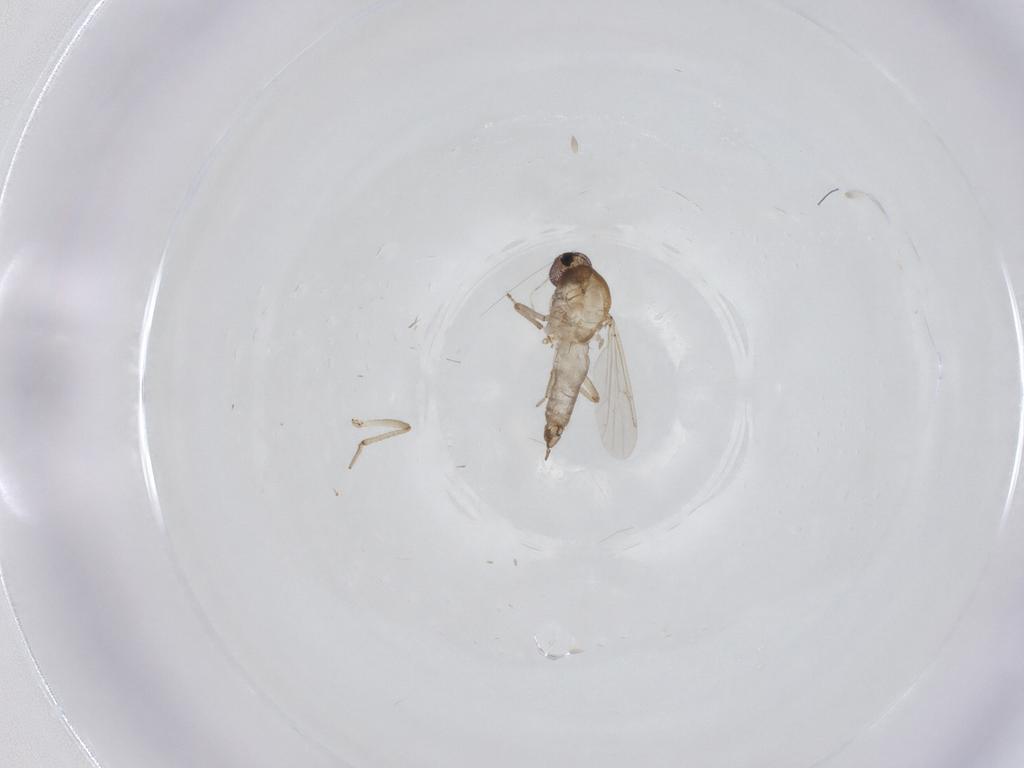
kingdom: Animalia
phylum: Arthropoda
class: Insecta
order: Diptera
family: Ceratopogonidae
